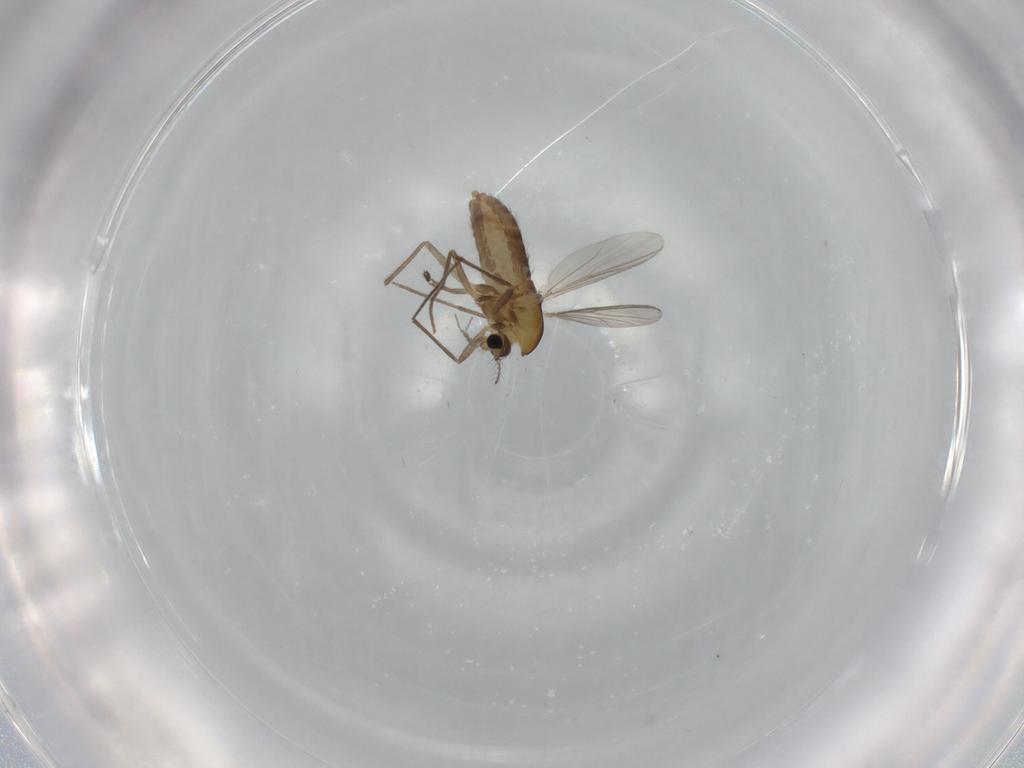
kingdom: Animalia
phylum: Arthropoda
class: Insecta
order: Diptera
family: Chironomidae
